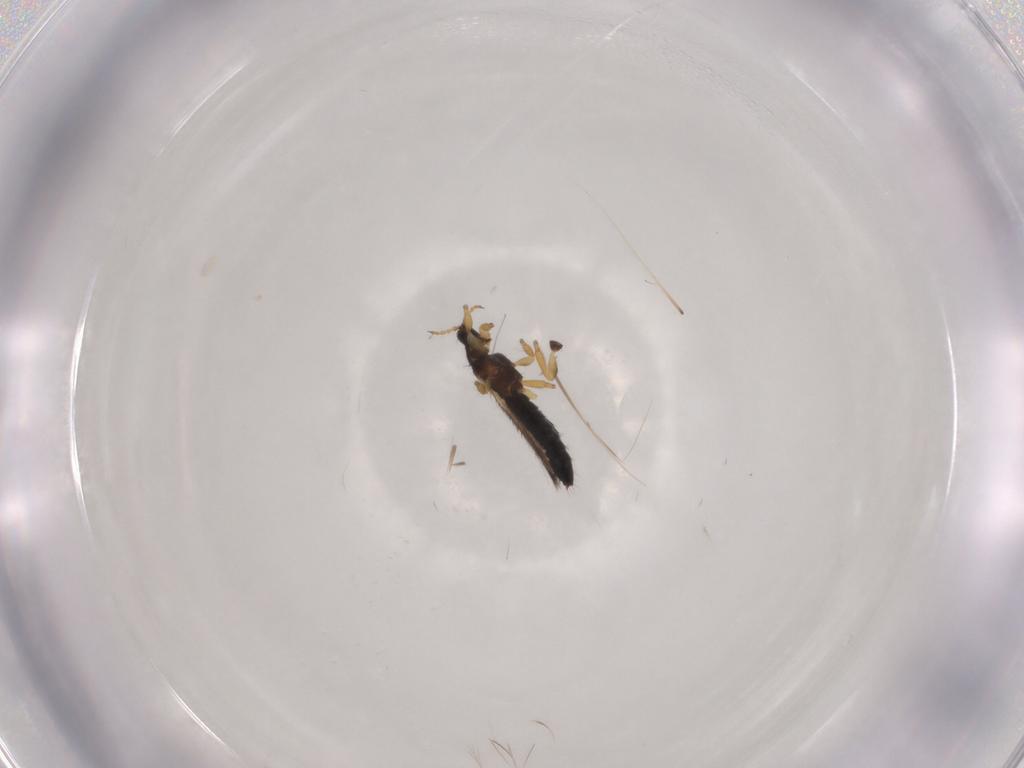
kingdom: Animalia
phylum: Arthropoda
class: Insecta
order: Thysanoptera
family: Thripidae
